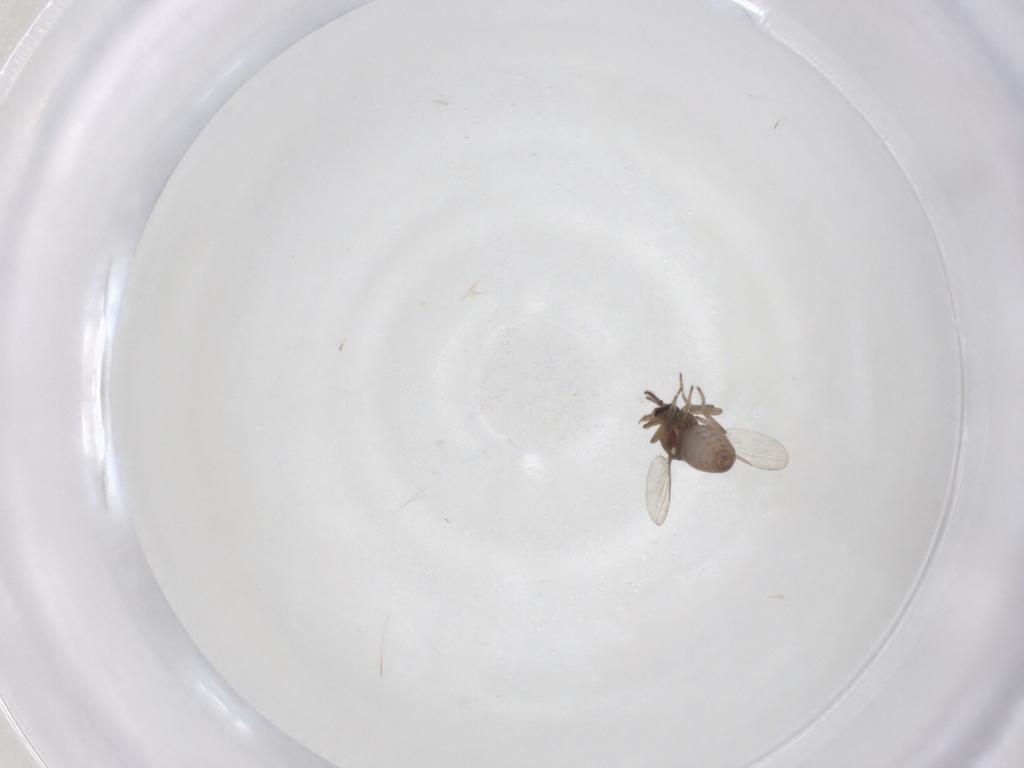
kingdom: Animalia
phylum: Arthropoda
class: Insecta
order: Diptera
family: Ceratopogonidae
